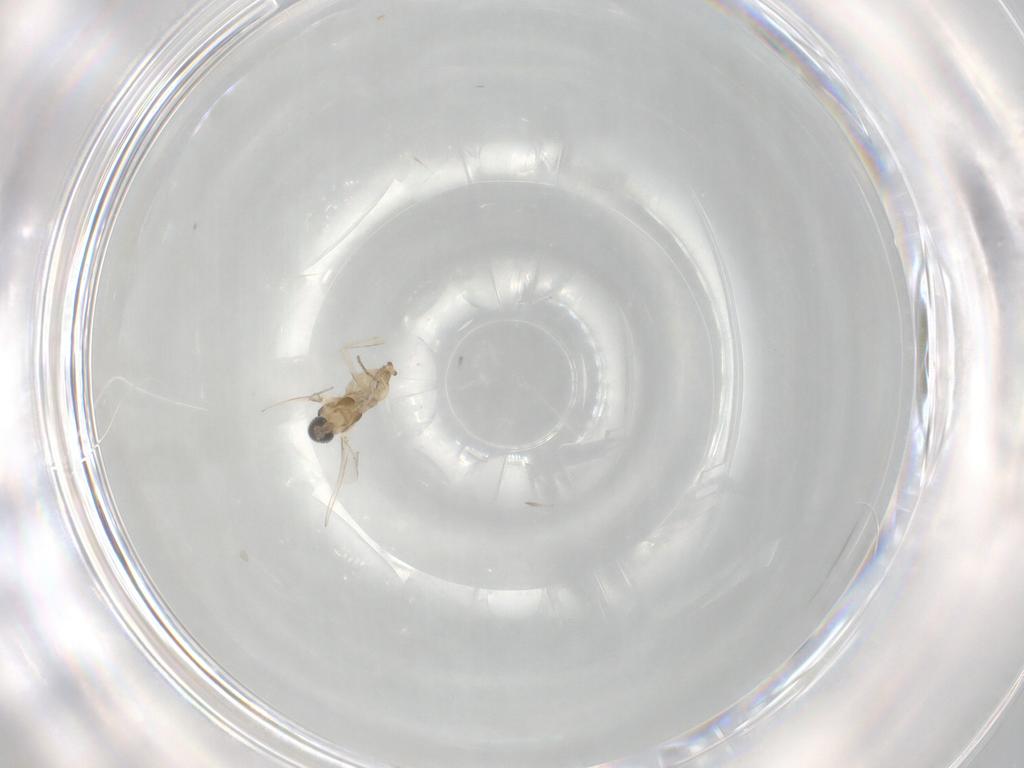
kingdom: Animalia
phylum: Arthropoda
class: Insecta
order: Diptera
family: Cecidomyiidae
